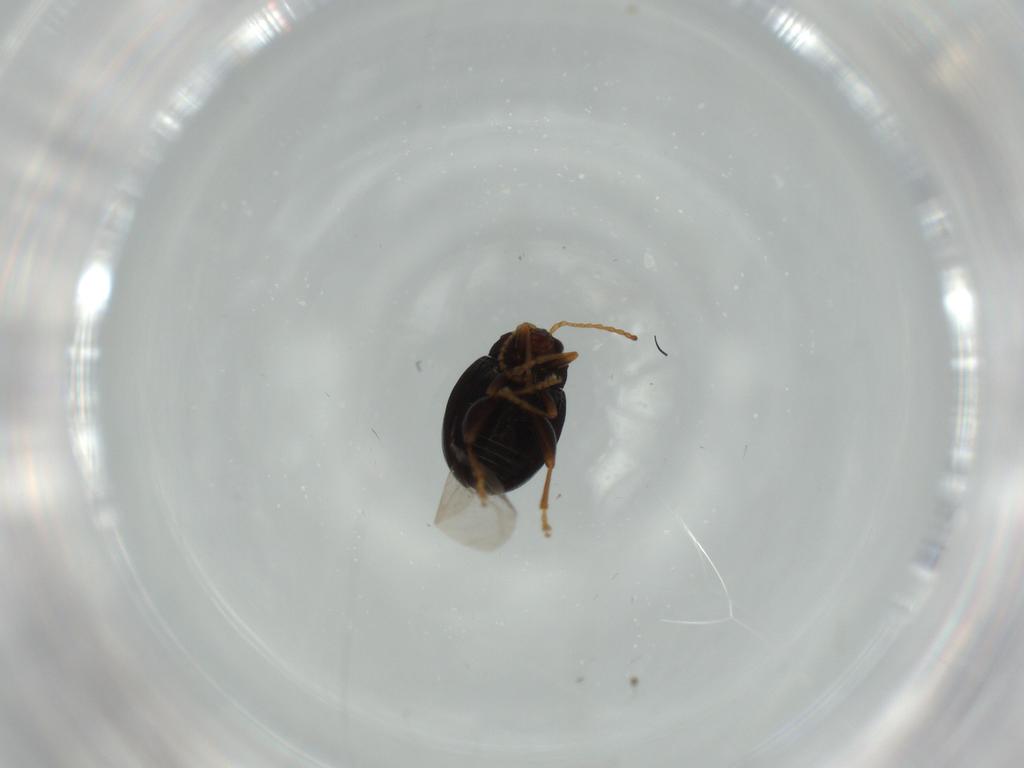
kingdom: Animalia
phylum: Arthropoda
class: Insecta
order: Coleoptera
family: Chrysomelidae
